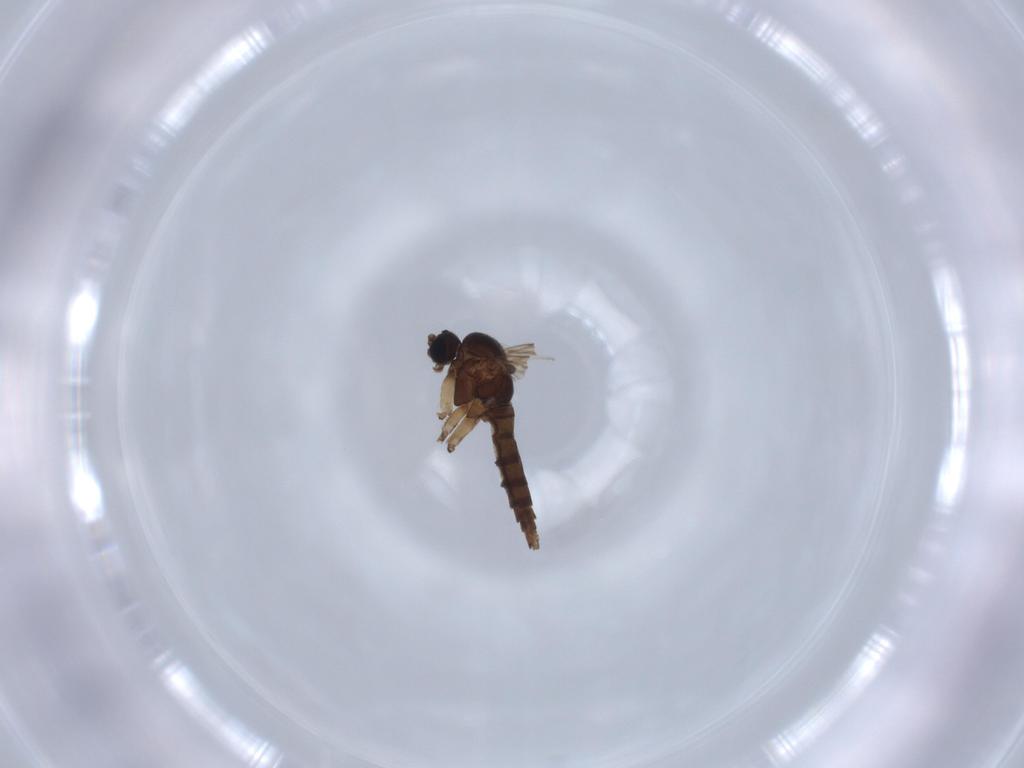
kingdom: Animalia
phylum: Arthropoda
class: Insecta
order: Diptera
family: Sciaridae
